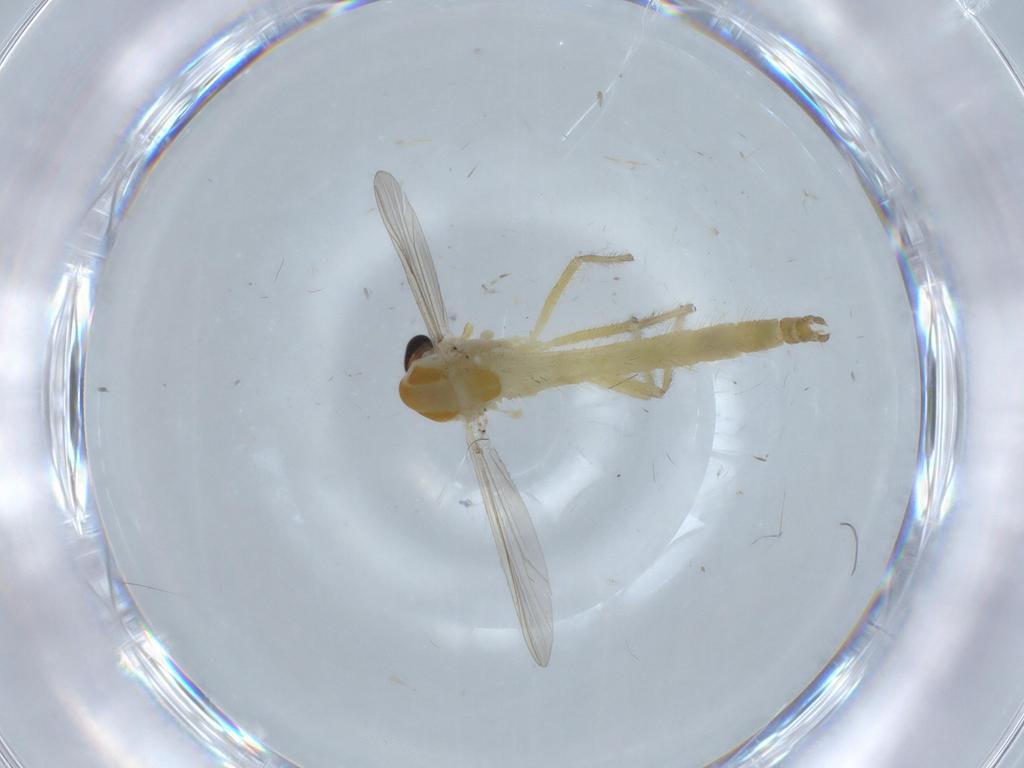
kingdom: Animalia
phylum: Arthropoda
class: Insecta
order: Diptera
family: Chironomidae
